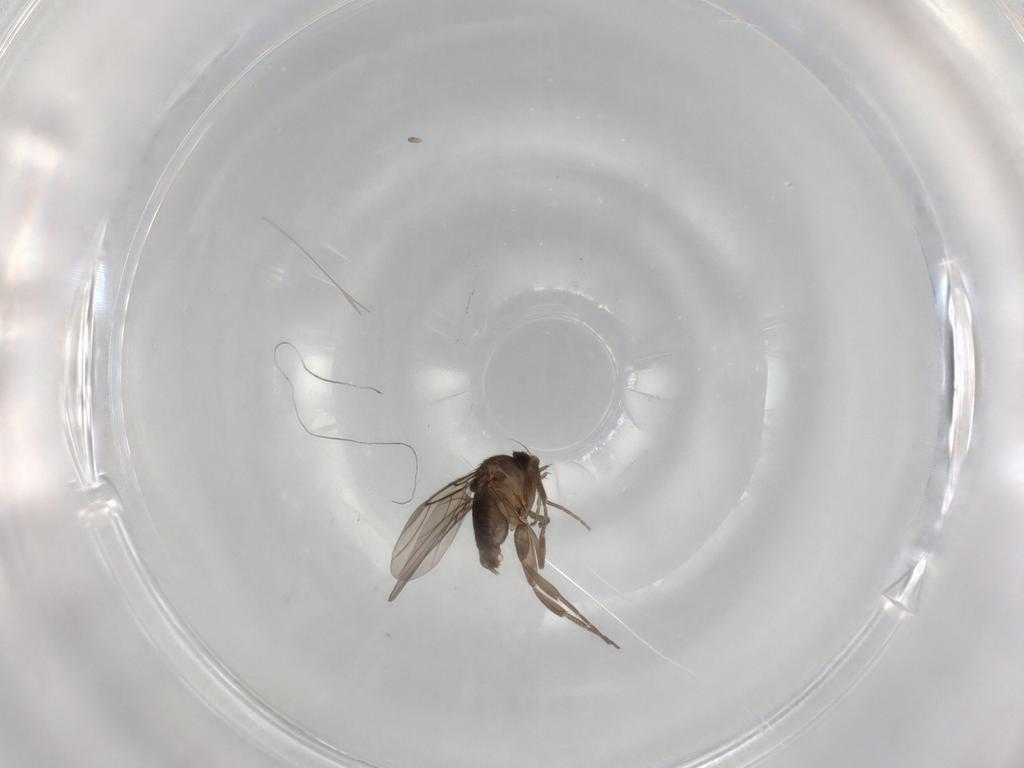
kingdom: Animalia
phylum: Arthropoda
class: Insecta
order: Diptera
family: Phoridae
